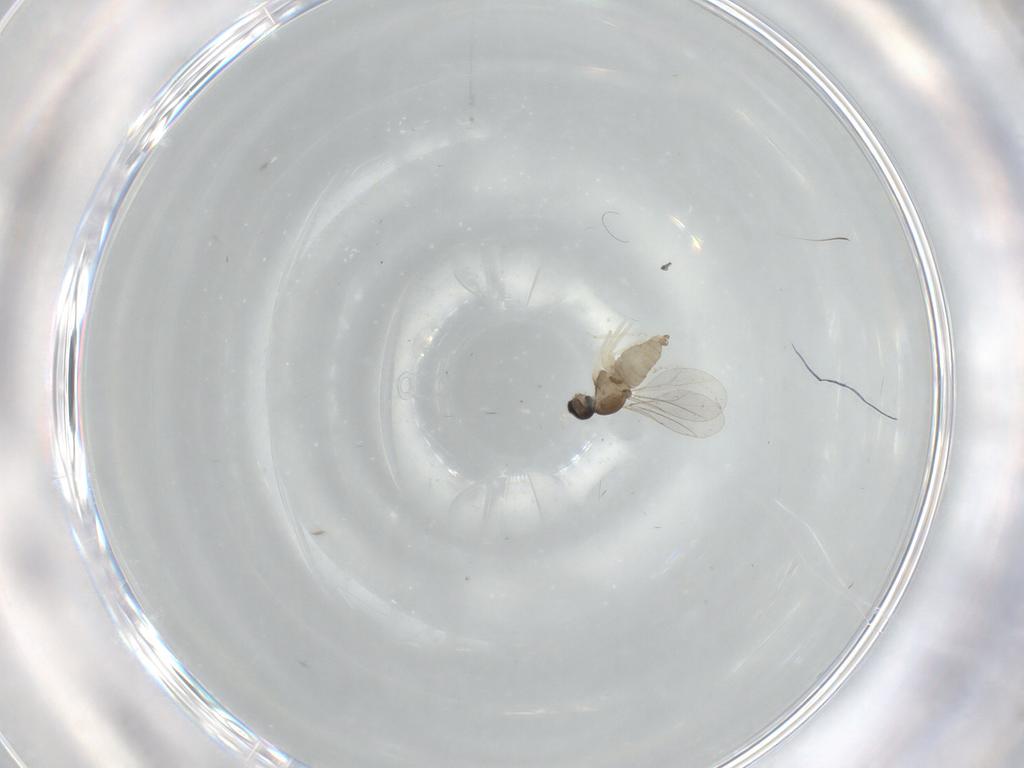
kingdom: Animalia
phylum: Arthropoda
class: Insecta
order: Diptera
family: Cecidomyiidae
